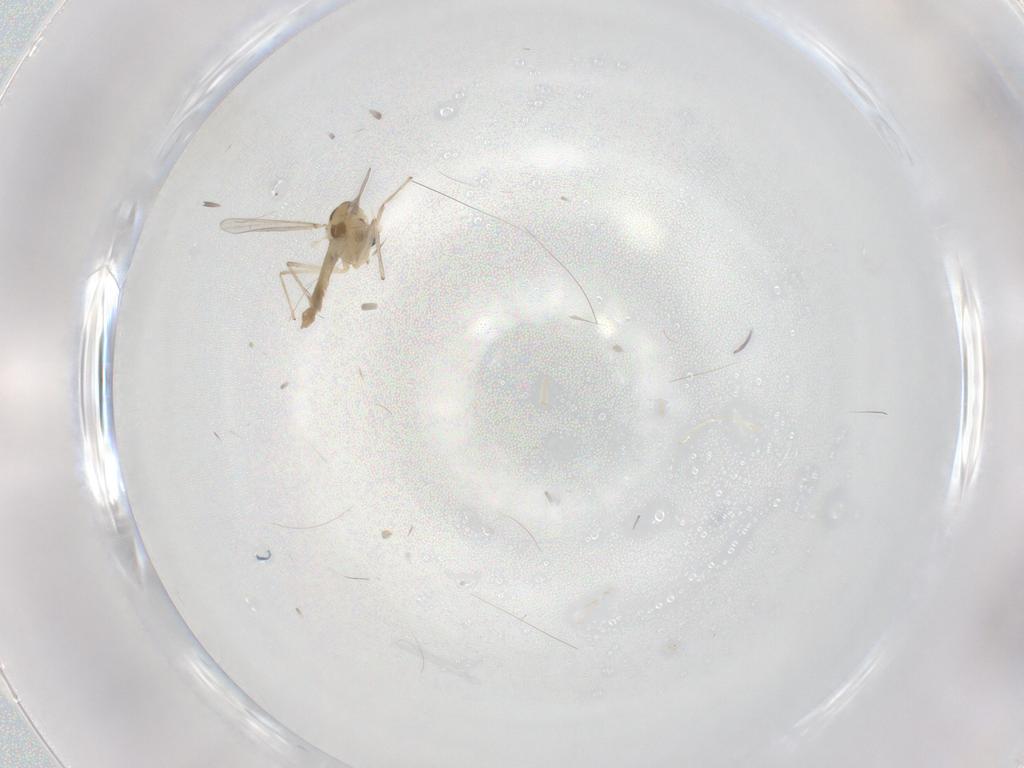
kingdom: Animalia
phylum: Arthropoda
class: Insecta
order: Diptera
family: Chironomidae
